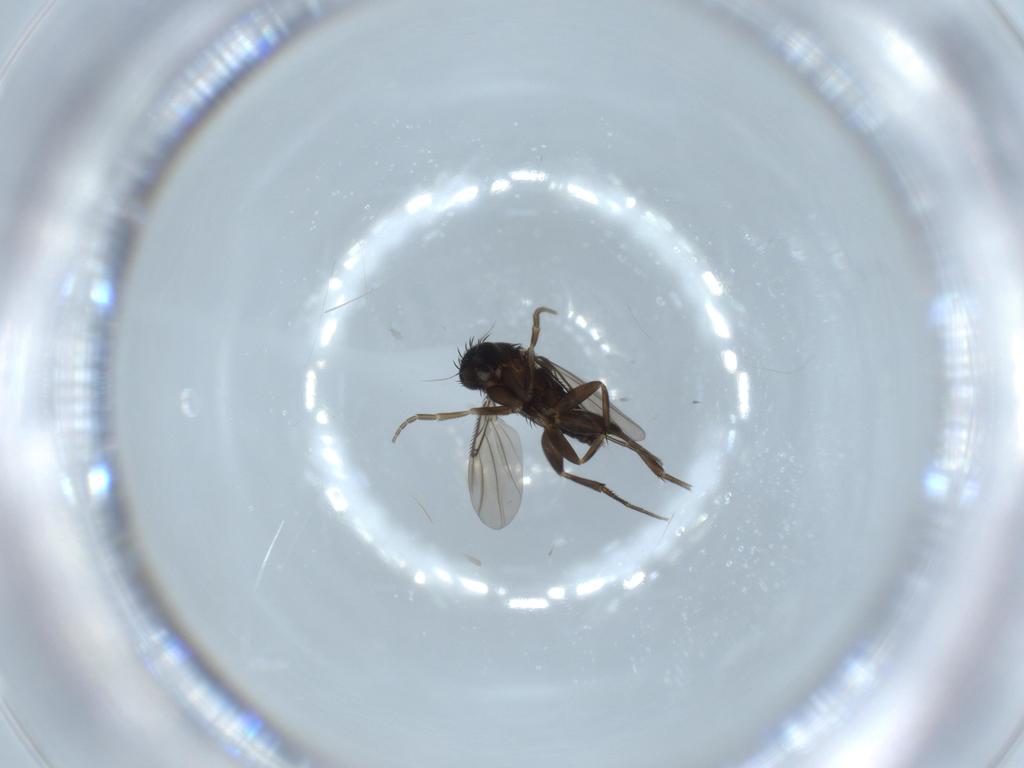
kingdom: Animalia
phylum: Arthropoda
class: Insecta
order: Diptera
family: Phoridae
